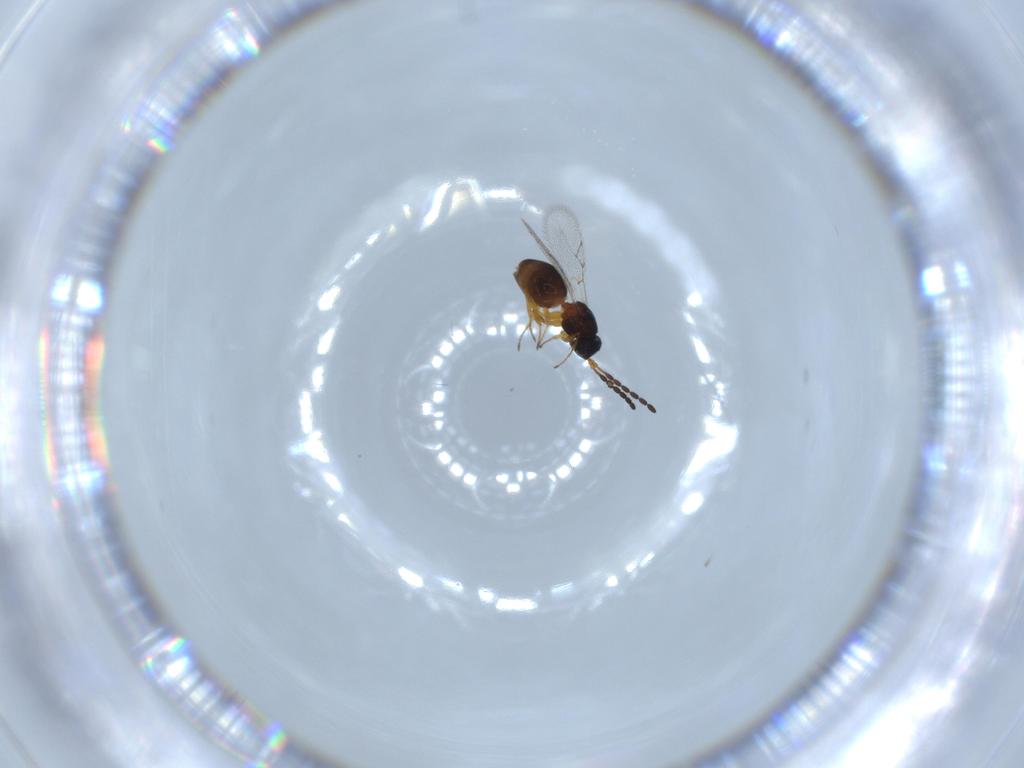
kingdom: Animalia
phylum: Arthropoda
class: Insecta
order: Hymenoptera
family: Figitidae
